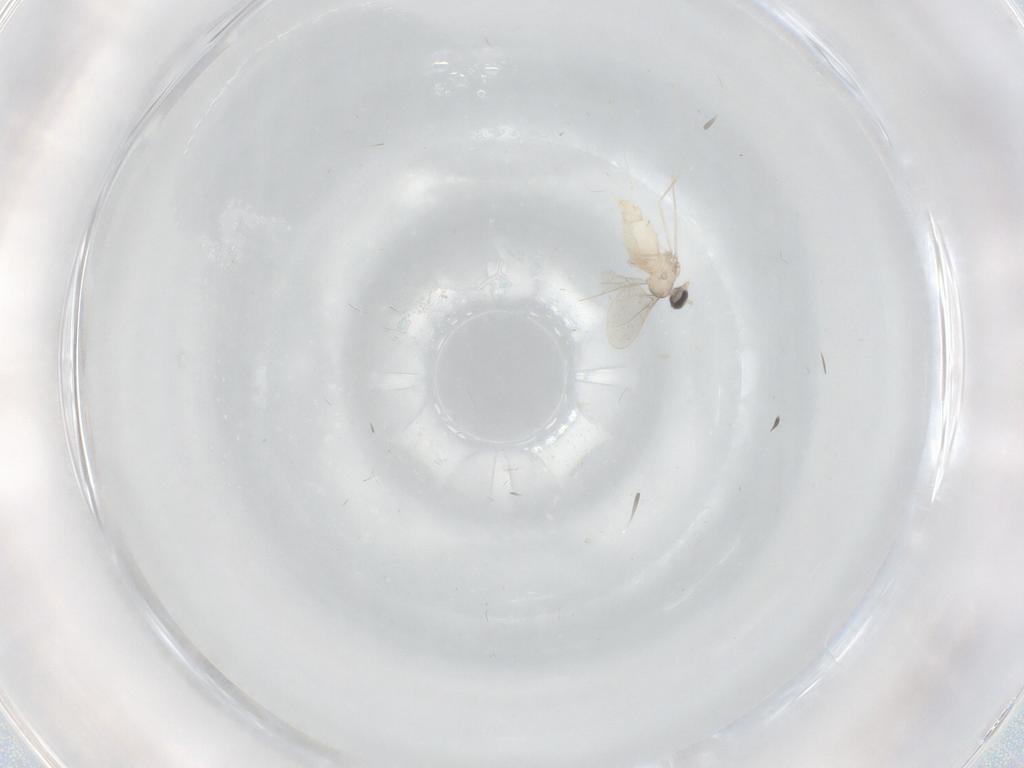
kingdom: Animalia
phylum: Arthropoda
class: Insecta
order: Diptera
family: Cecidomyiidae
